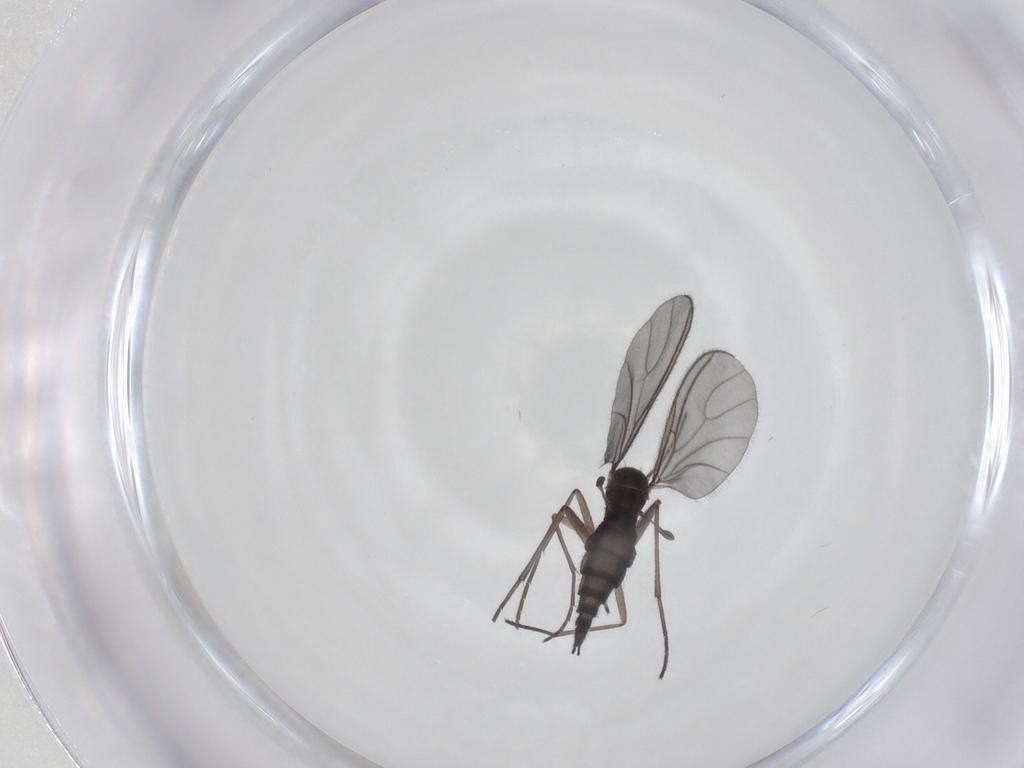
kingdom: Animalia
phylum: Arthropoda
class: Insecta
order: Diptera
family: Sciaridae
